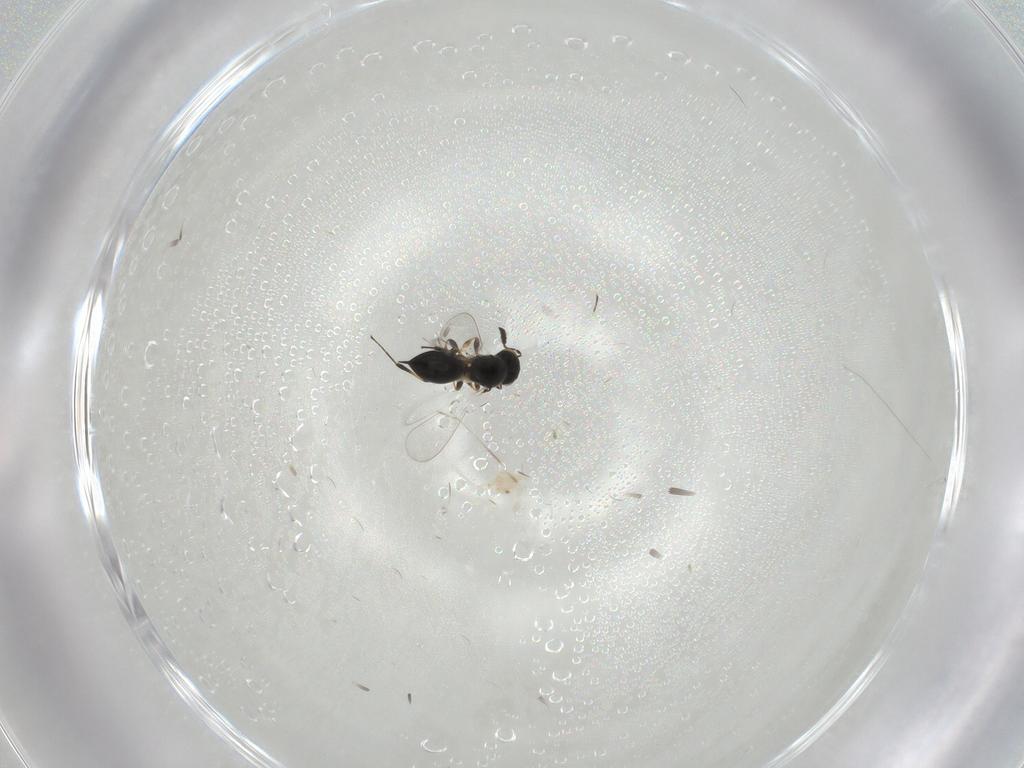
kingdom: Animalia
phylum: Arthropoda
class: Insecta
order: Hymenoptera
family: Platygastridae
